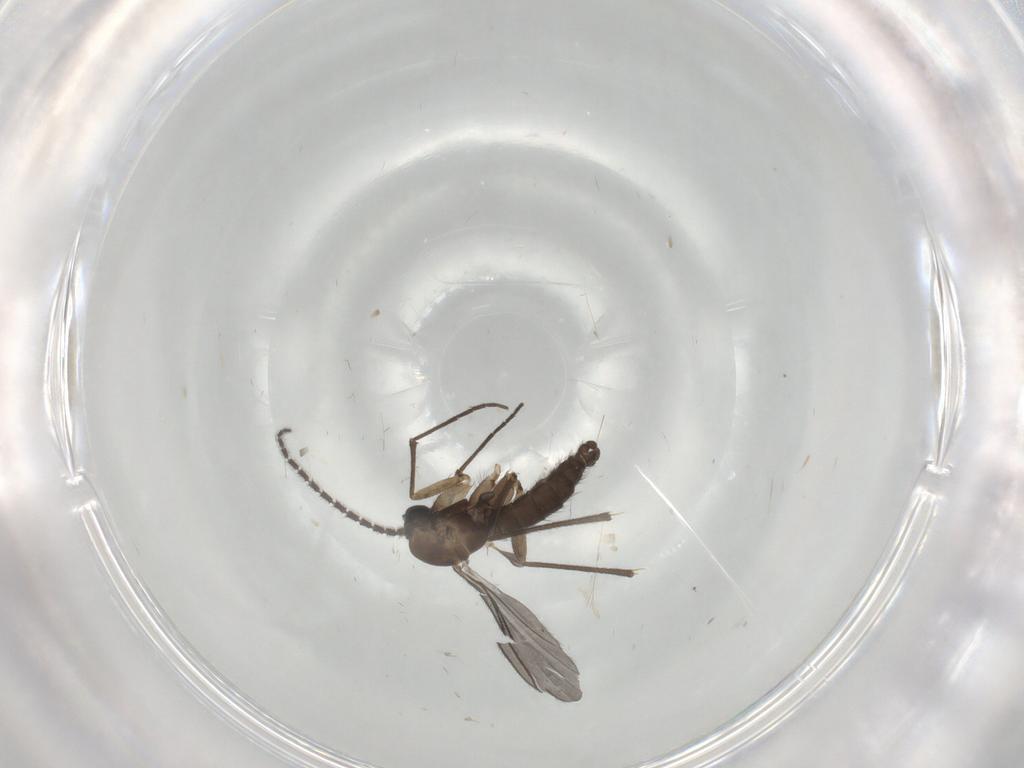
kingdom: Animalia
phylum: Arthropoda
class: Insecta
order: Diptera
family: Sciaridae
